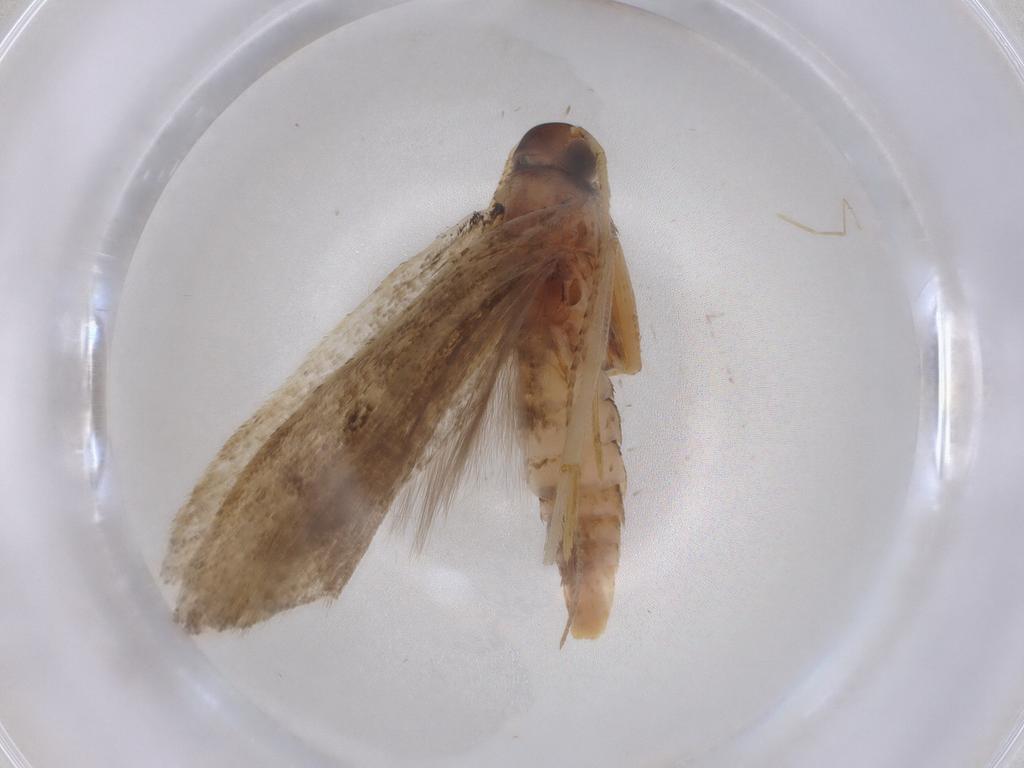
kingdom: Animalia
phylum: Arthropoda
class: Insecta
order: Lepidoptera
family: Gelechiidae
